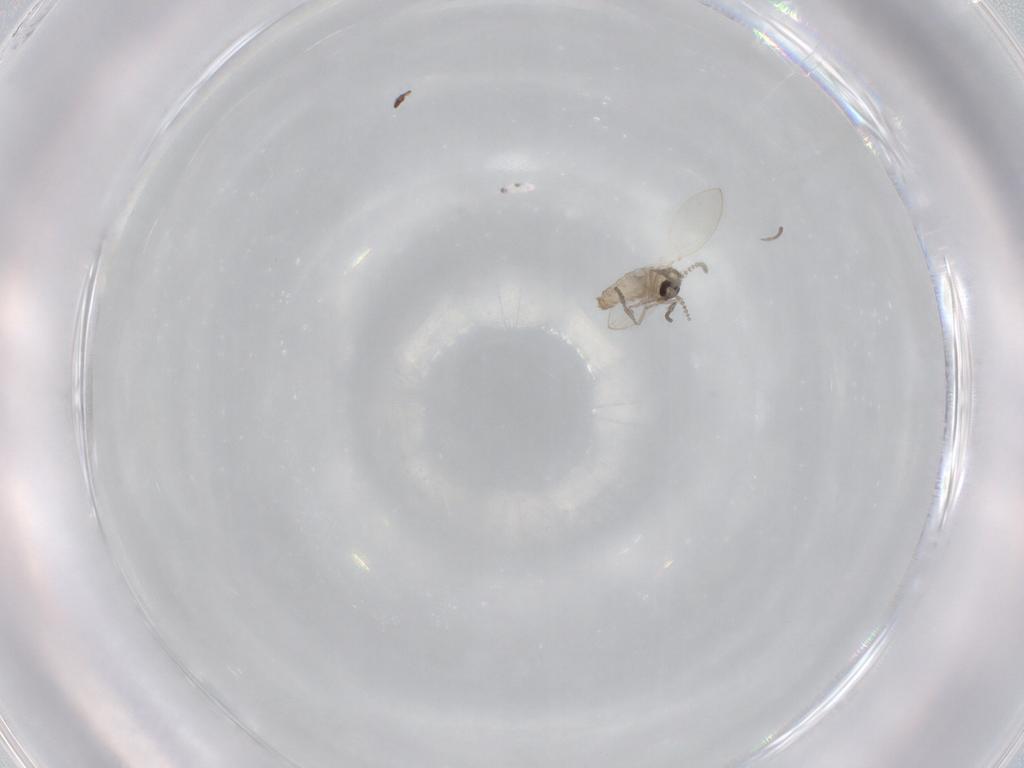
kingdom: Animalia
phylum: Arthropoda
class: Insecta
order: Diptera
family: Psychodidae
